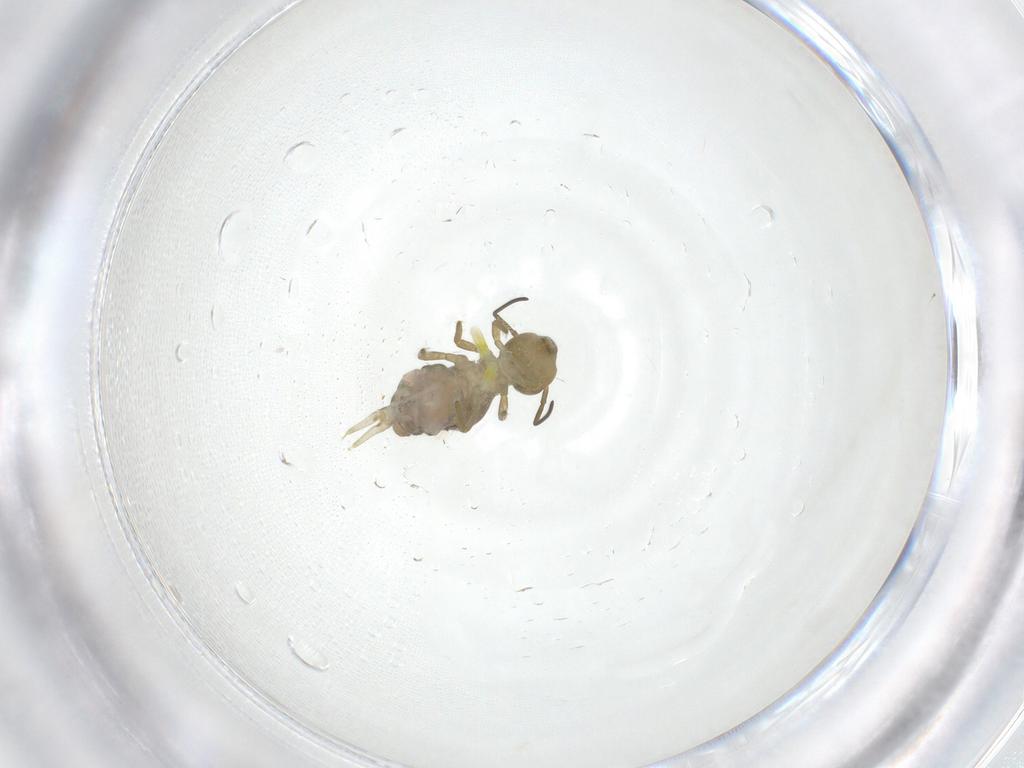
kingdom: Animalia
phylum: Arthropoda
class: Collembola
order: Symphypleona
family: Sminthuridae
